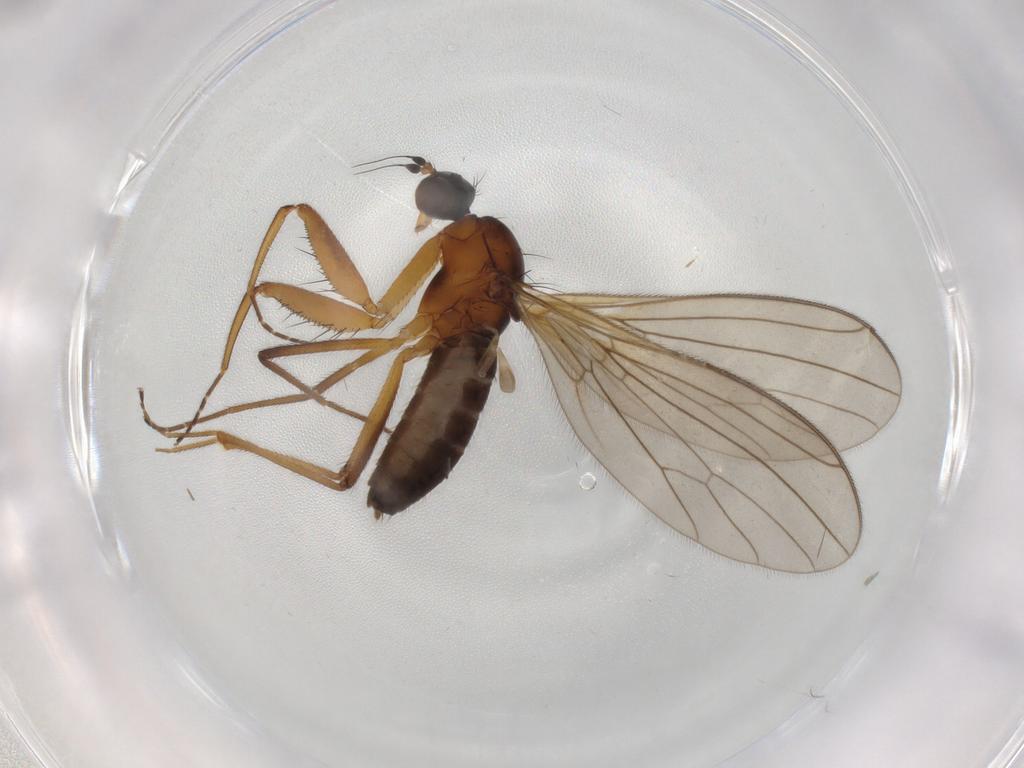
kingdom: Animalia
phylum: Arthropoda
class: Insecta
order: Diptera
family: Chironomidae
